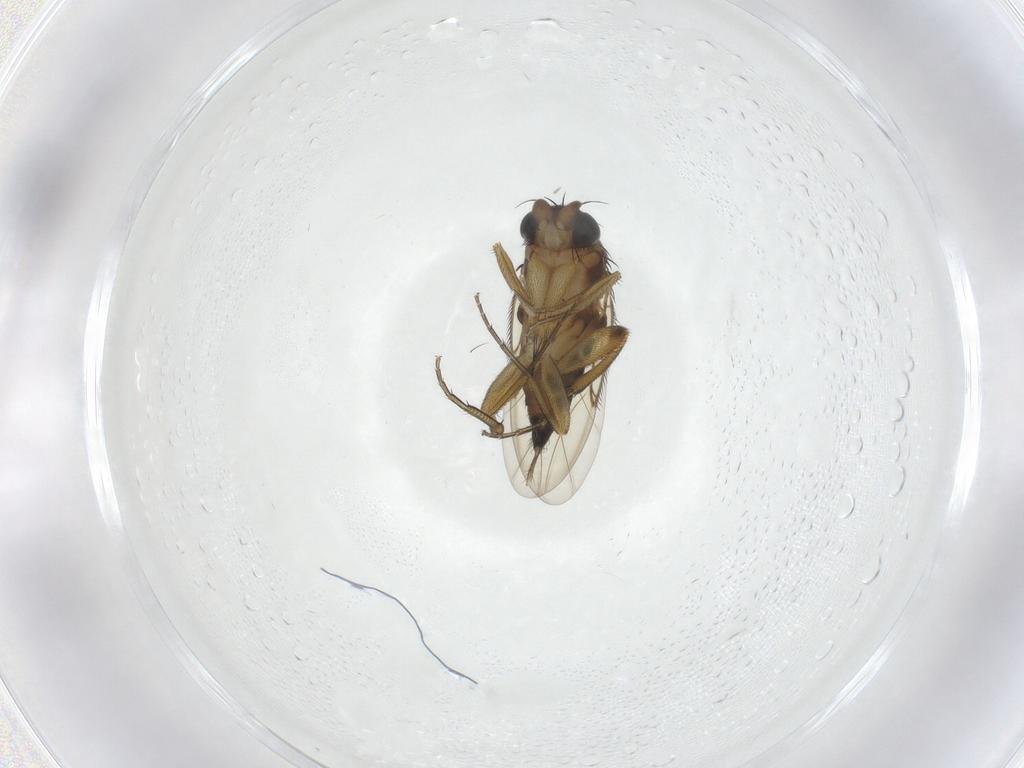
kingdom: Animalia
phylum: Arthropoda
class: Insecta
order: Diptera
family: Phoridae
